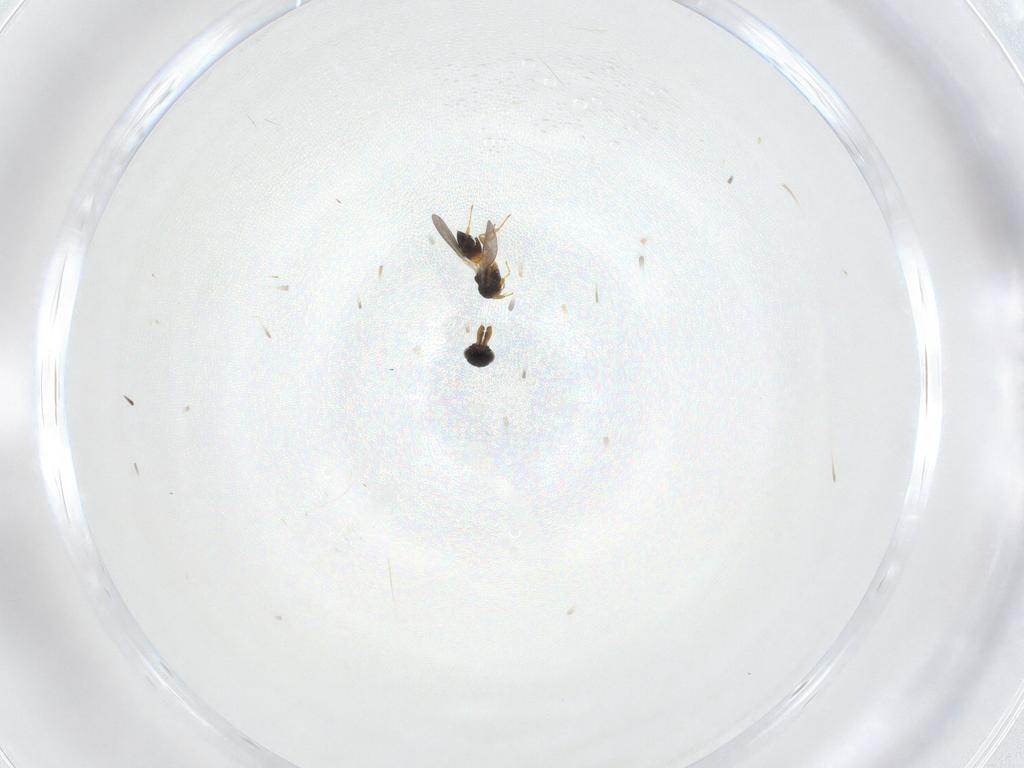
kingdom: Animalia
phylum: Arthropoda
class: Insecta
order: Hymenoptera
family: Platygastridae
